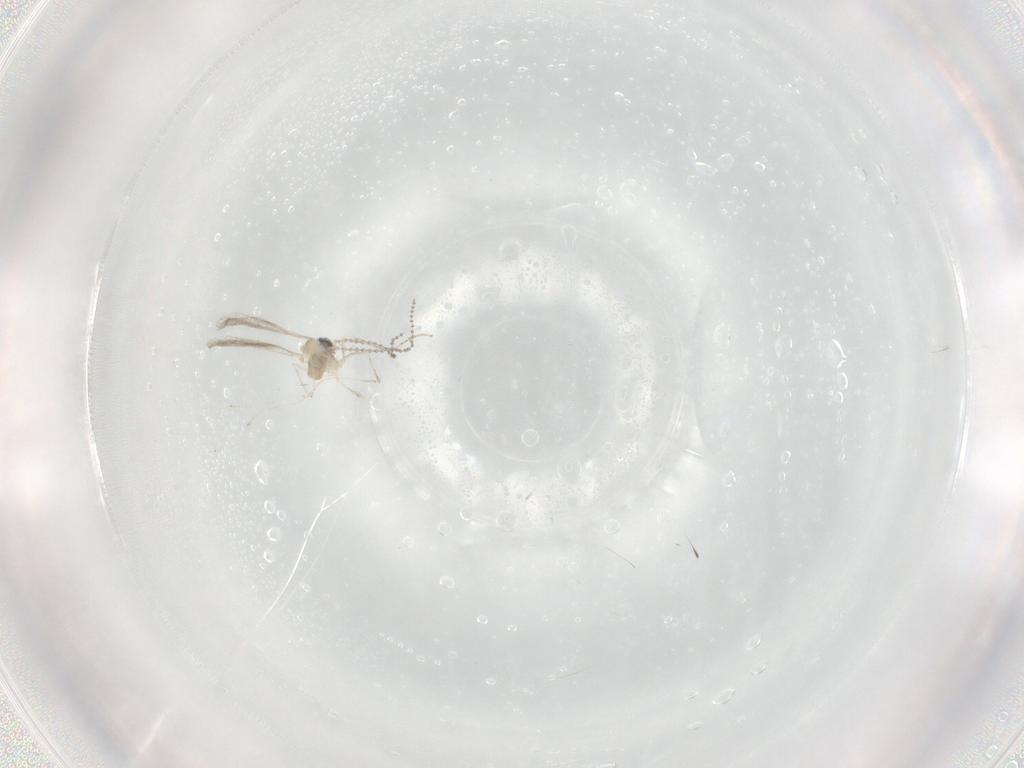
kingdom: Animalia
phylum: Arthropoda
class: Insecta
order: Diptera
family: Cecidomyiidae
